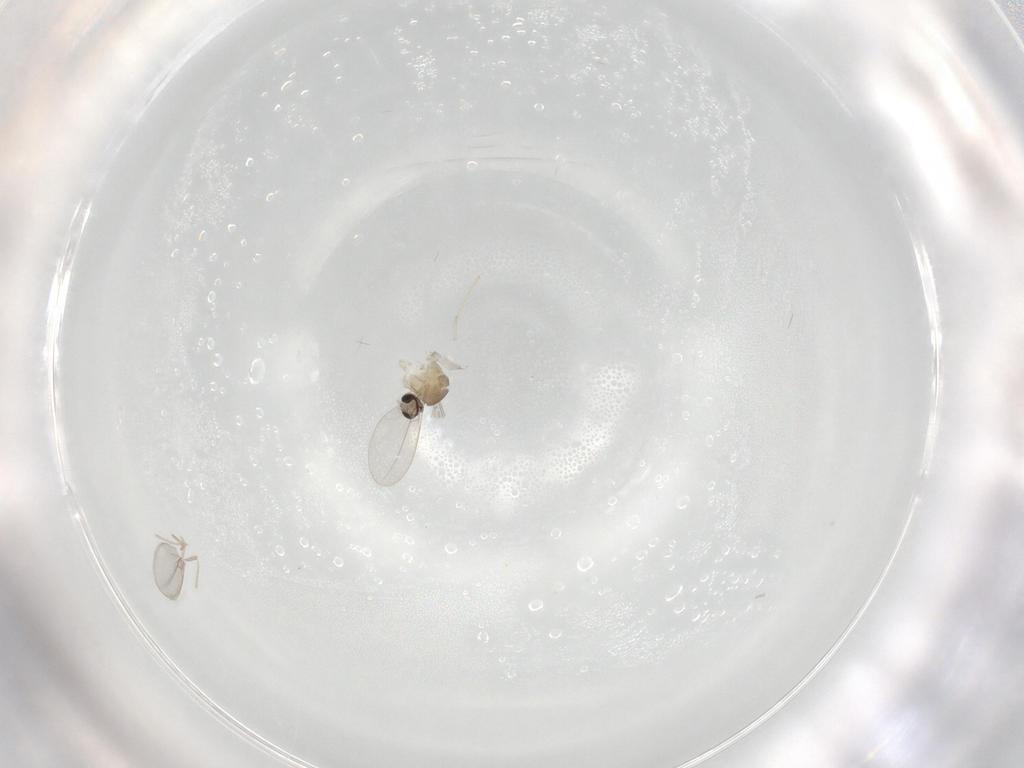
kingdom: Animalia
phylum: Arthropoda
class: Insecta
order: Diptera
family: Cecidomyiidae
